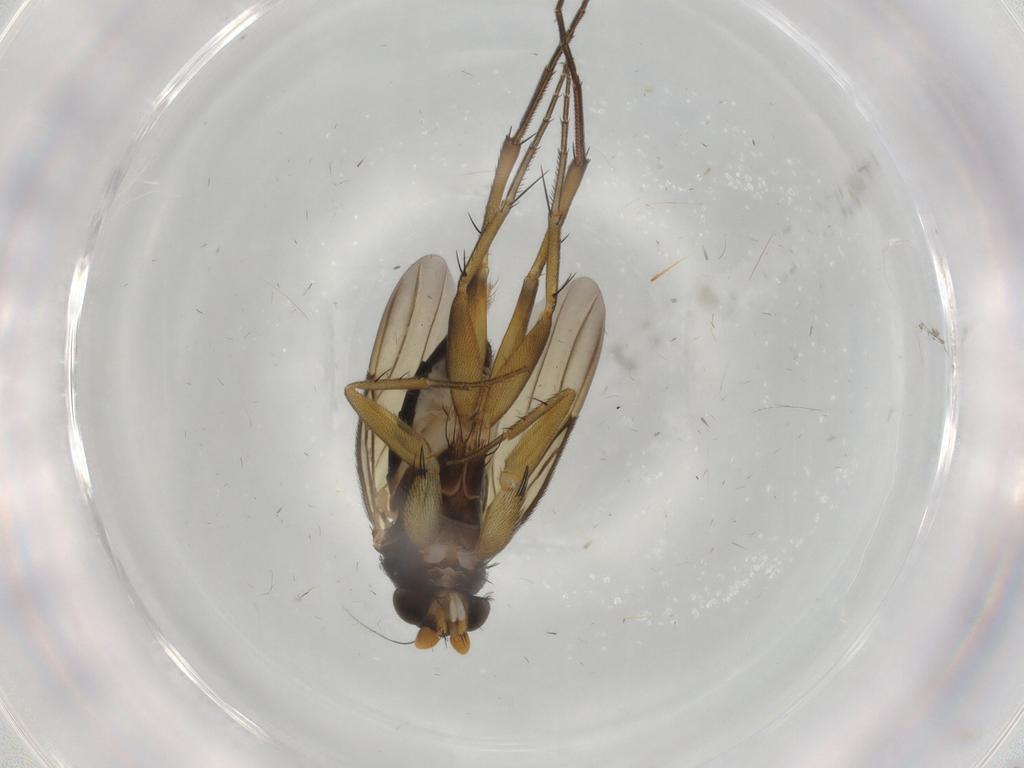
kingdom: Animalia
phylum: Arthropoda
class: Insecta
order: Diptera
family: Phoridae
